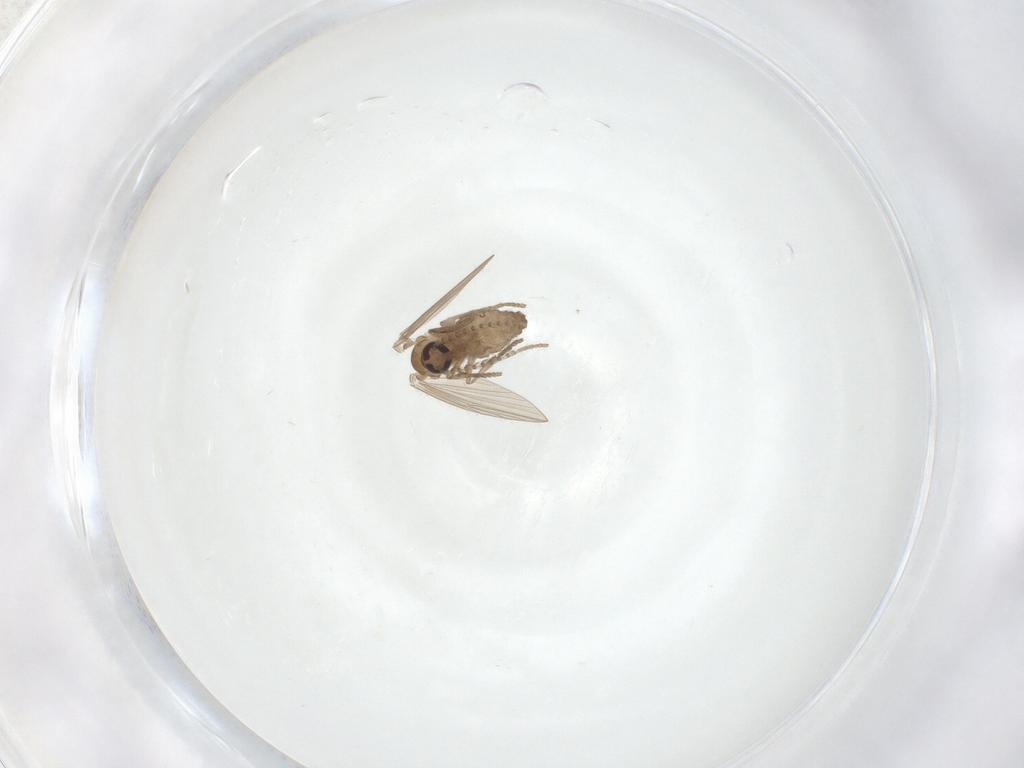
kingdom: Animalia
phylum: Arthropoda
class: Insecta
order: Diptera
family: Psychodidae
